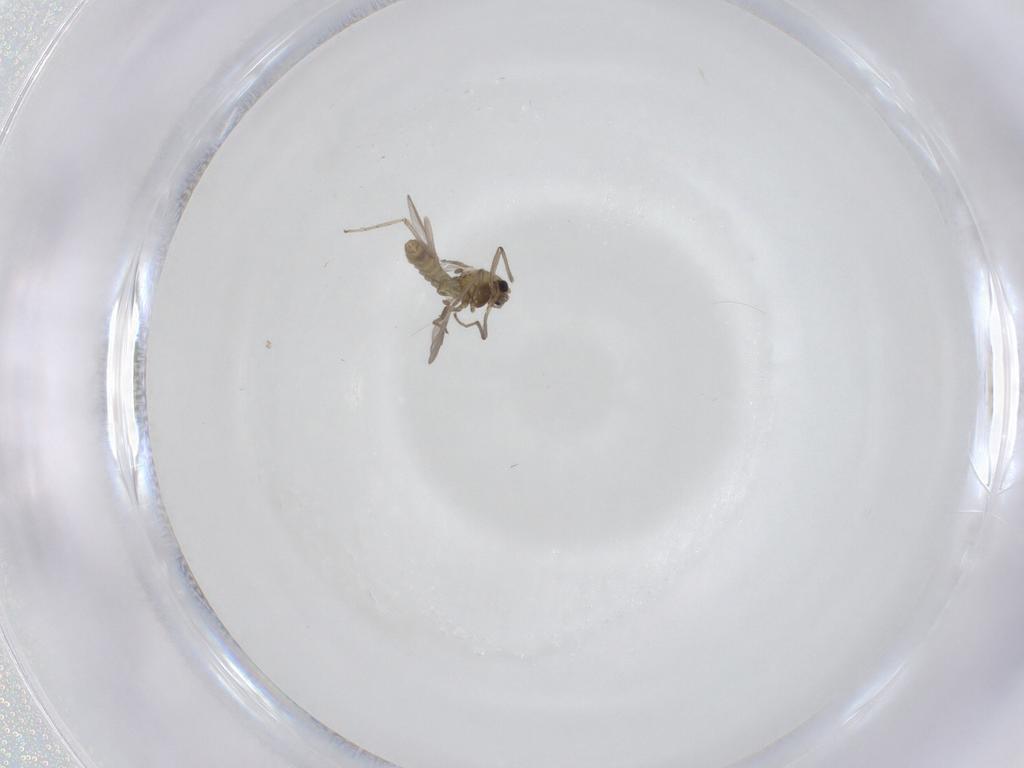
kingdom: Animalia
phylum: Arthropoda
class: Insecta
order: Diptera
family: Chironomidae
